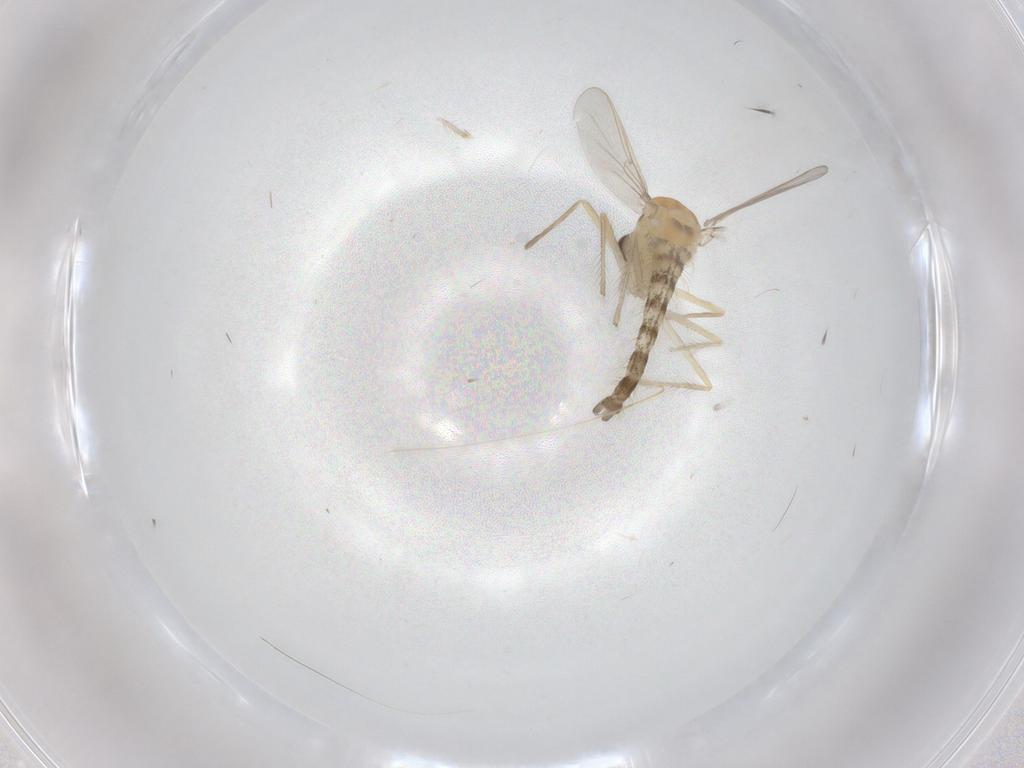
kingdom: Animalia
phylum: Arthropoda
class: Insecta
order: Diptera
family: Chironomidae
